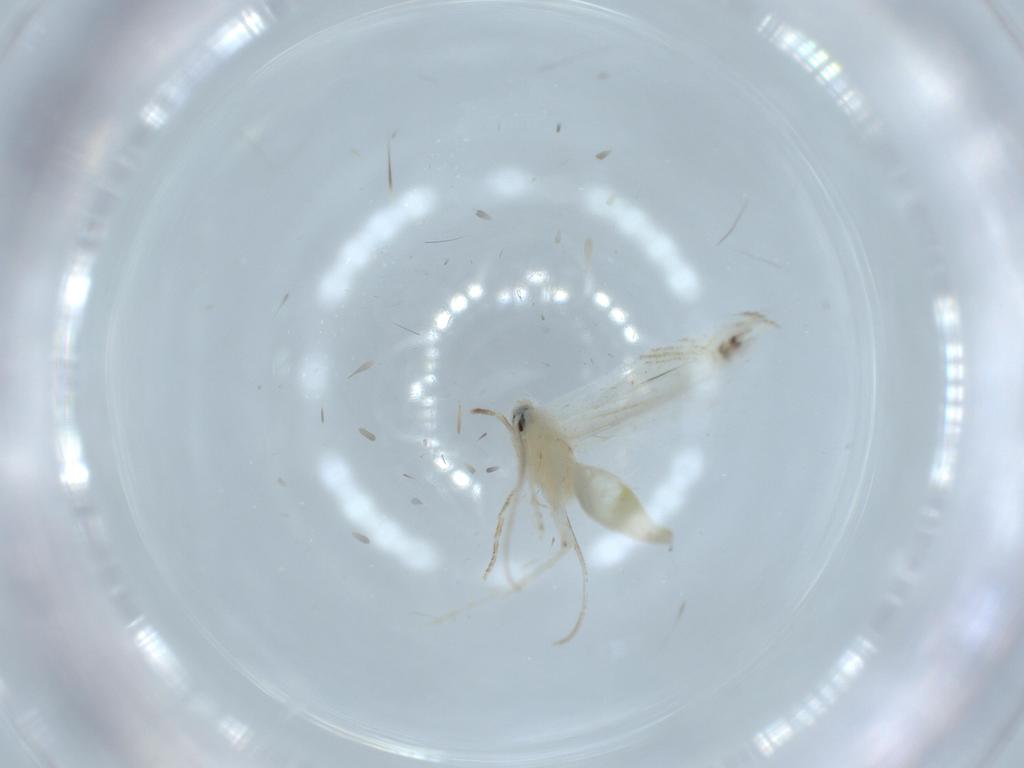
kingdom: Animalia
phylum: Arthropoda
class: Insecta
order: Lepidoptera
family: Lyonetiidae
